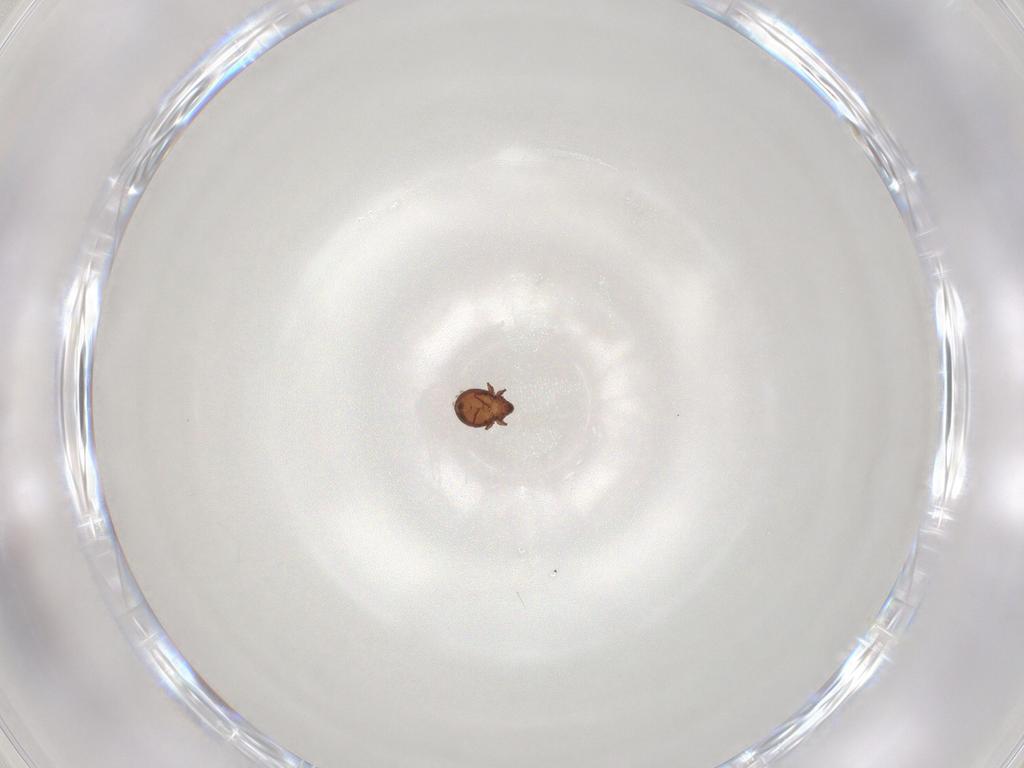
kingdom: Animalia
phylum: Arthropoda
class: Arachnida
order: Sarcoptiformes
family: Scheloribatidae
